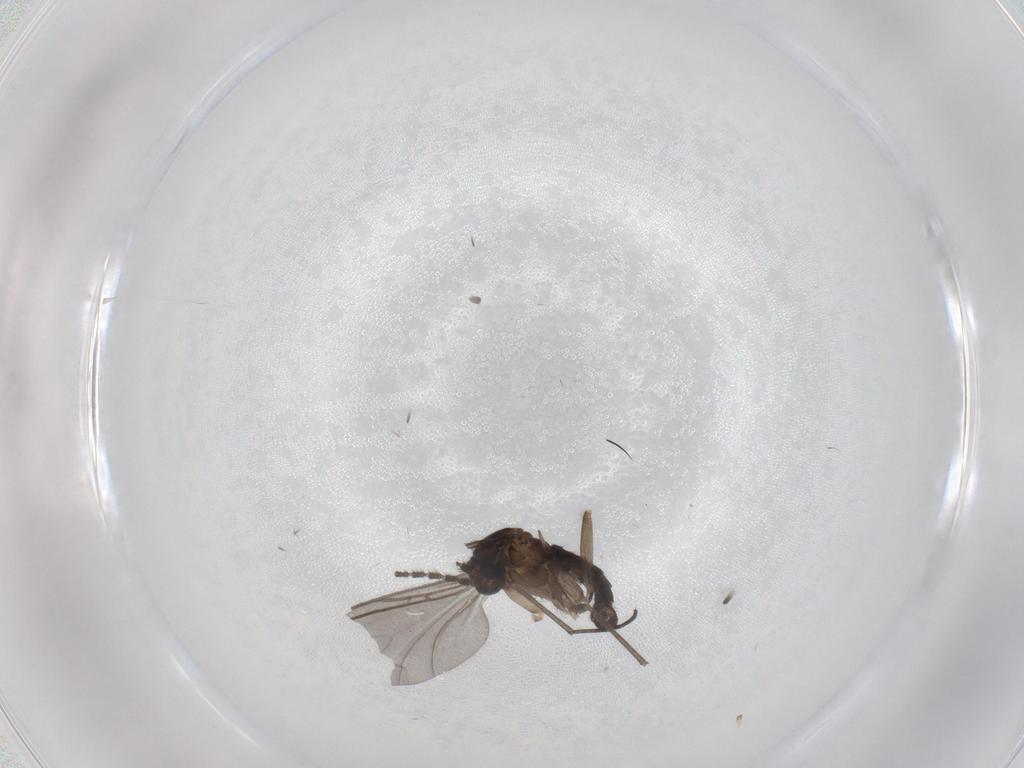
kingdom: Animalia
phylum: Arthropoda
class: Insecta
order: Diptera
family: Sciaridae
